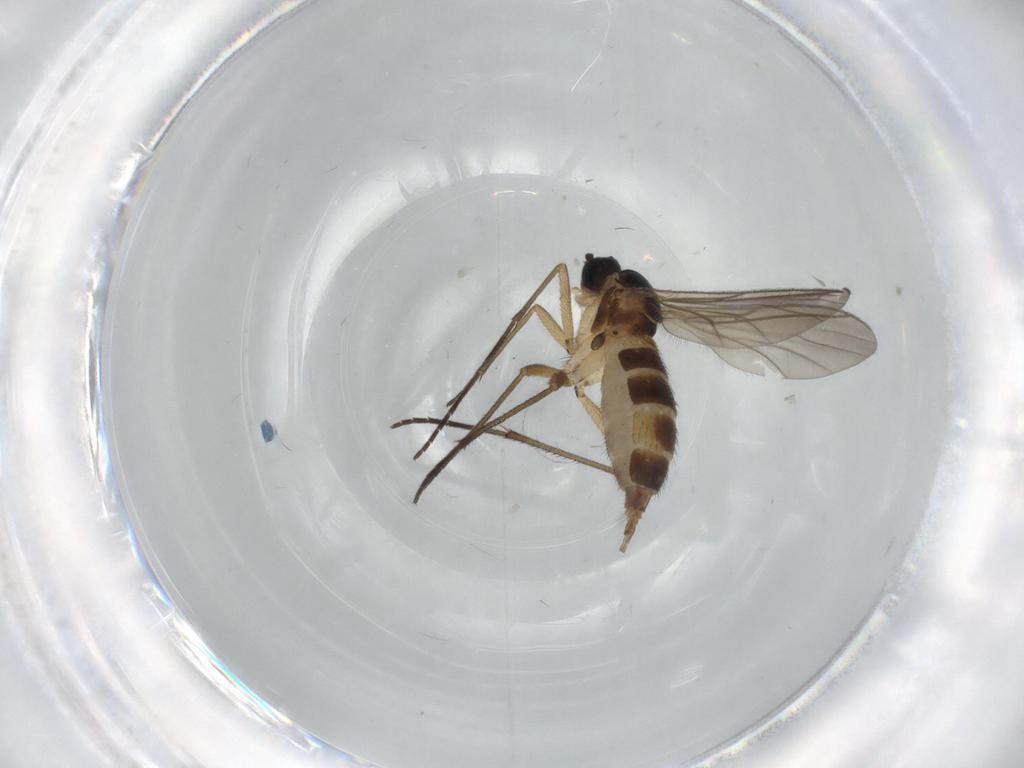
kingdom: Animalia
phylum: Arthropoda
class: Insecta
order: Diptera
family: Sciaridae
